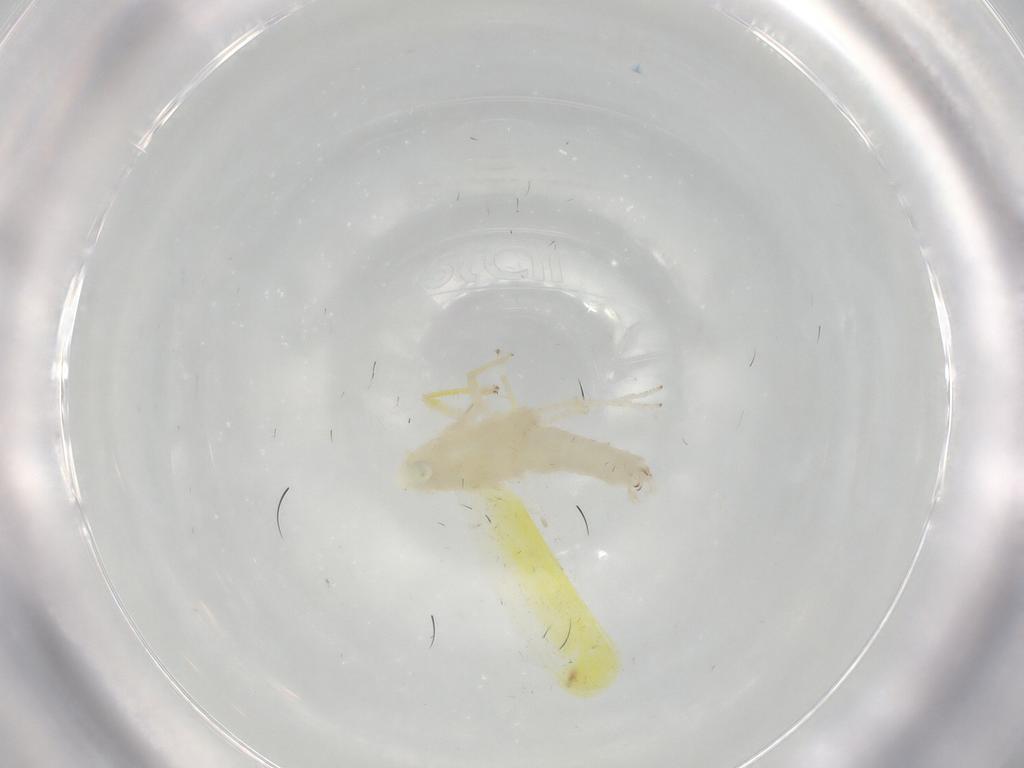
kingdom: Animalia
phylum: Arthropoda
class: Insecta
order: Hemiptera
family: Cicadellidae
